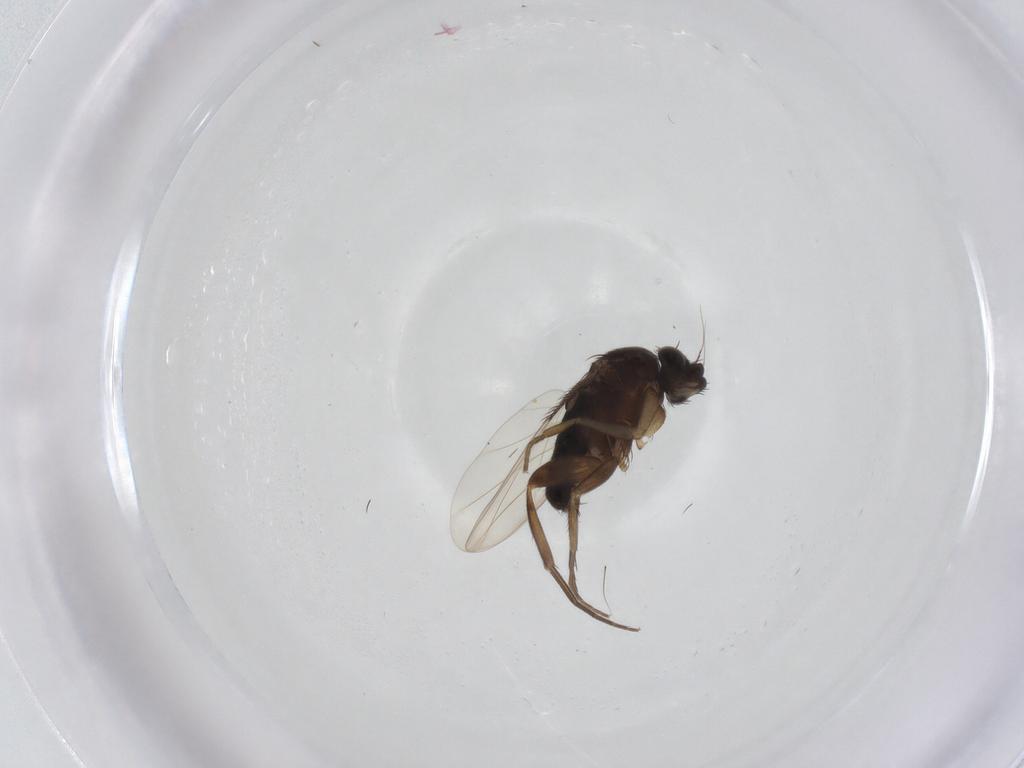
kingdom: Animalia
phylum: Arthropoda
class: Insecta
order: Diptera
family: Phoridae
